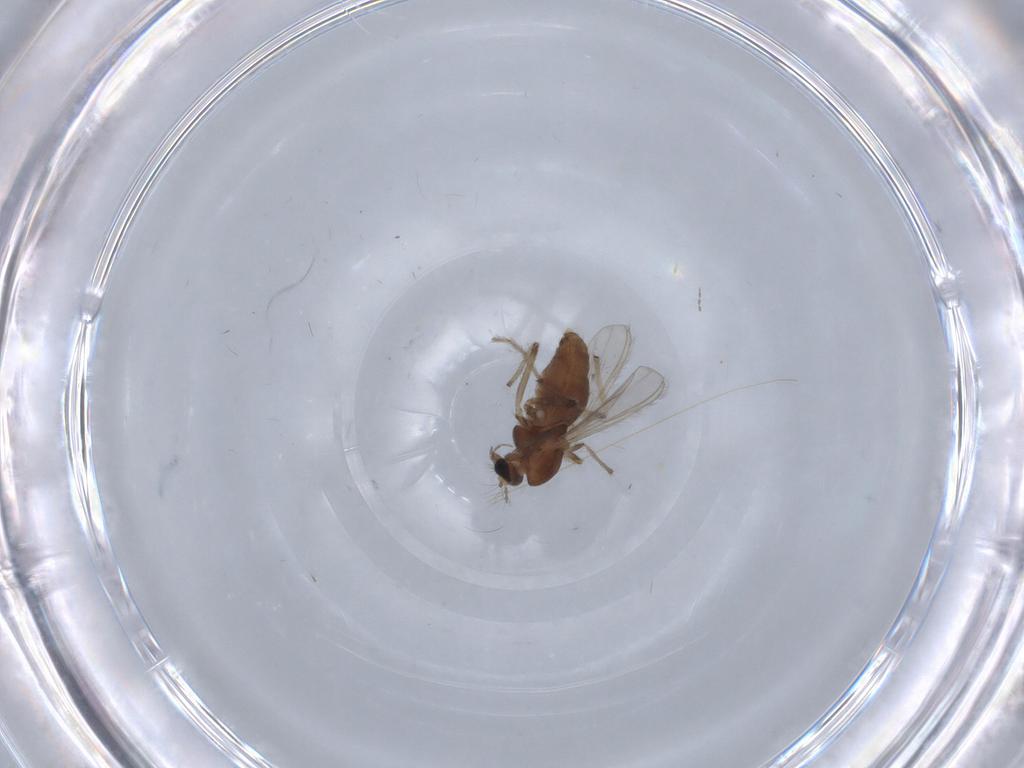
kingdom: Animalia
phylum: Arthropoda
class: Insecta
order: Diptera
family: Chironomidae
